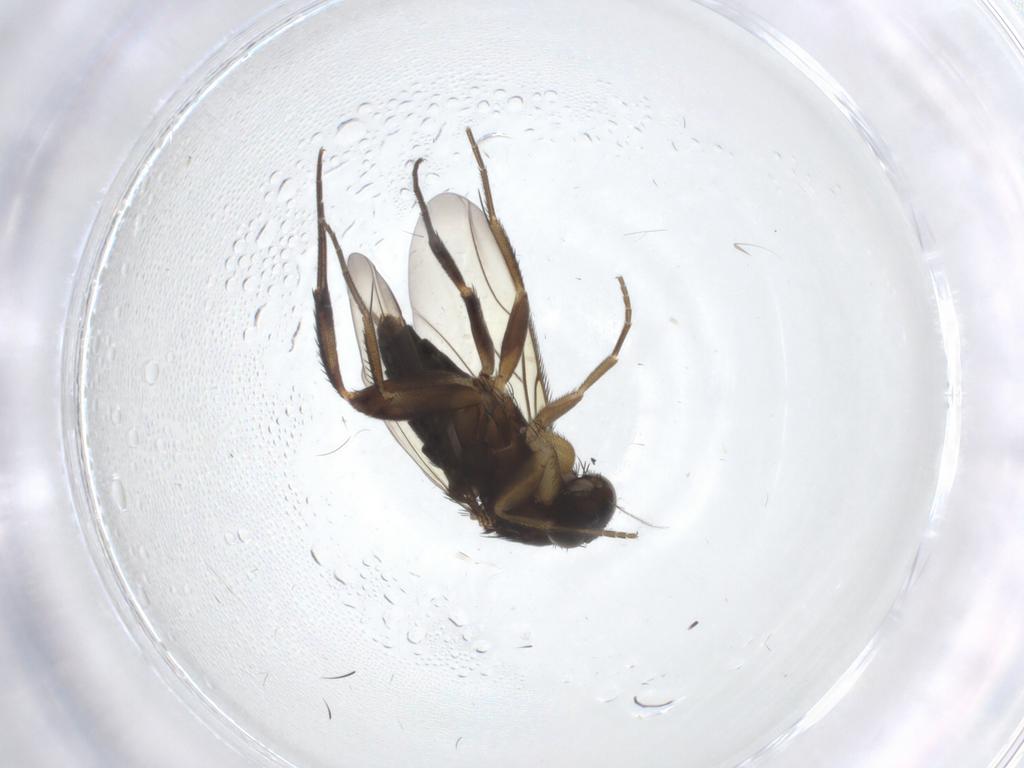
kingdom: Animalia
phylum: Arthropoda
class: Insecta
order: Diptera
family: Phoridae
